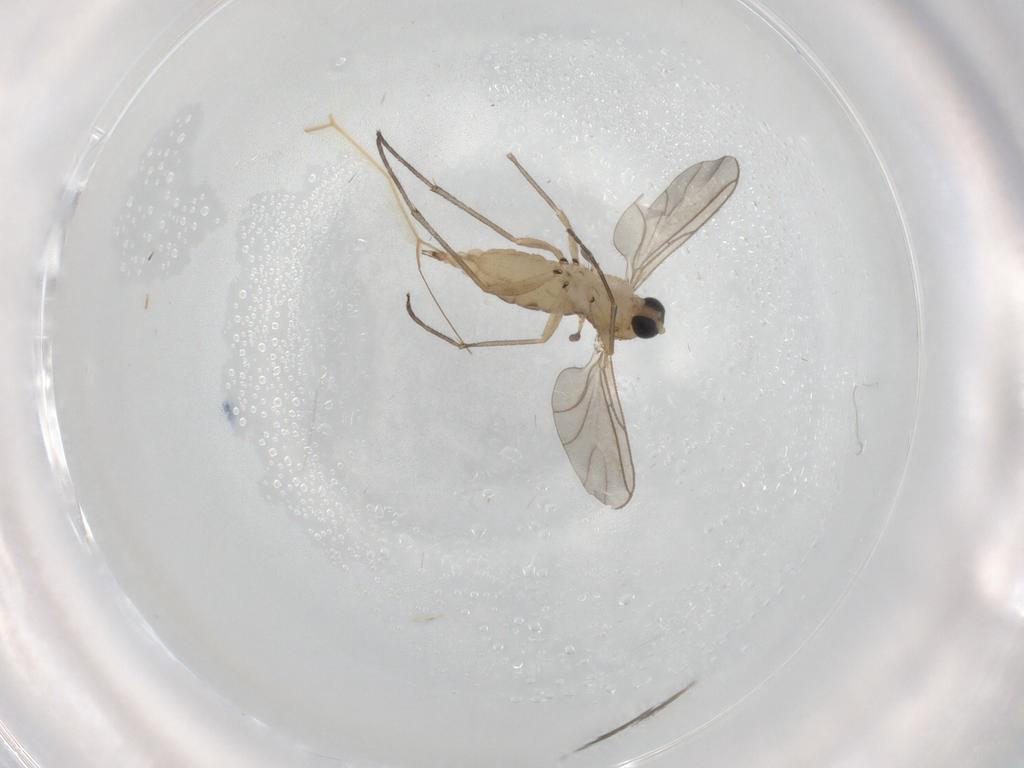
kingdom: Animalia
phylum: Arthropoda
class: Insecta
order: Diptera
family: Sciaridae
